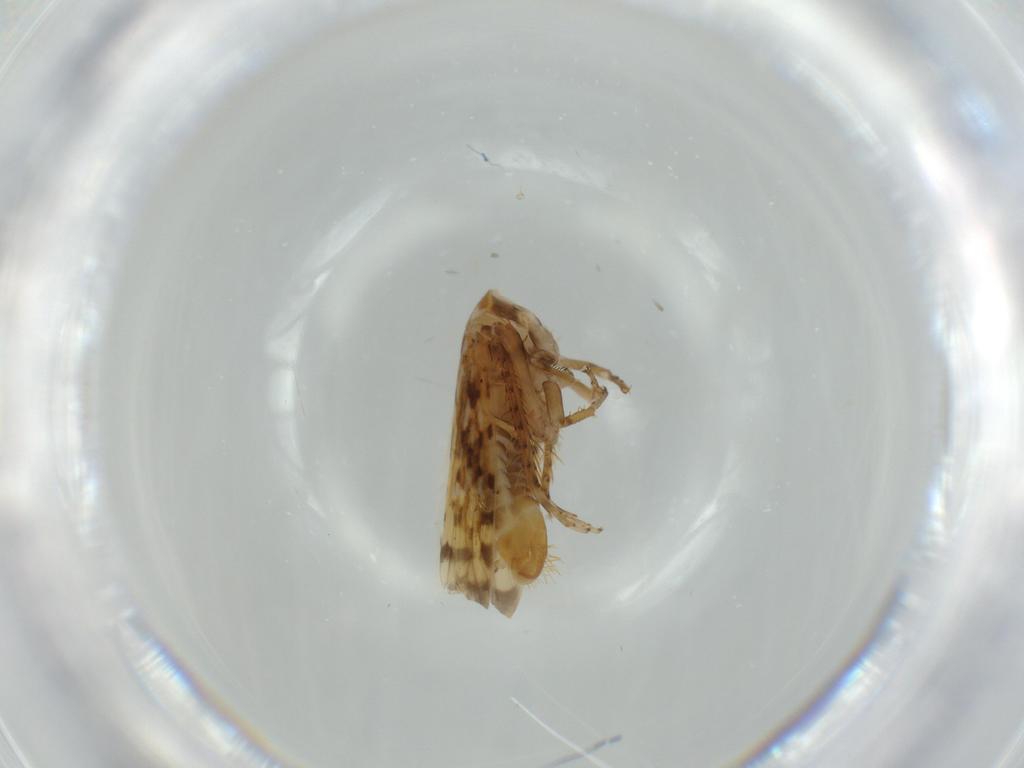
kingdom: Animalia
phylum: Arthropoda
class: Insecta
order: Hemiptera
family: Cicadellidae
